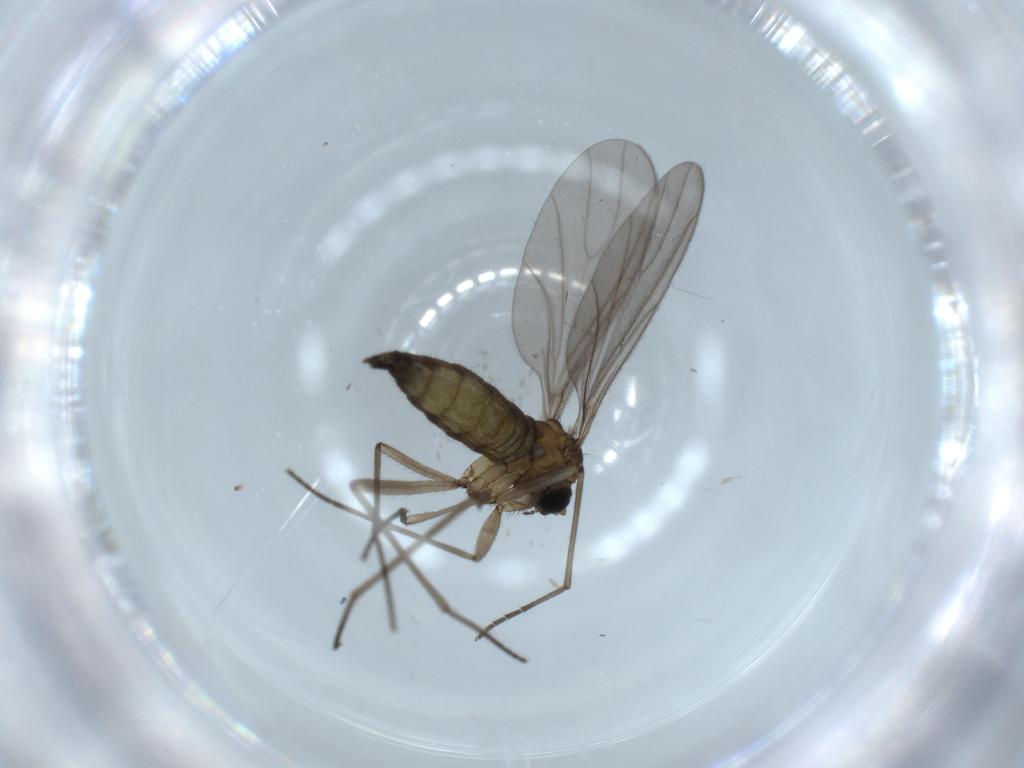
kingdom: Animalia
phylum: Arthropoda
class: Insecta
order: Diptera
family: Sciaridae
